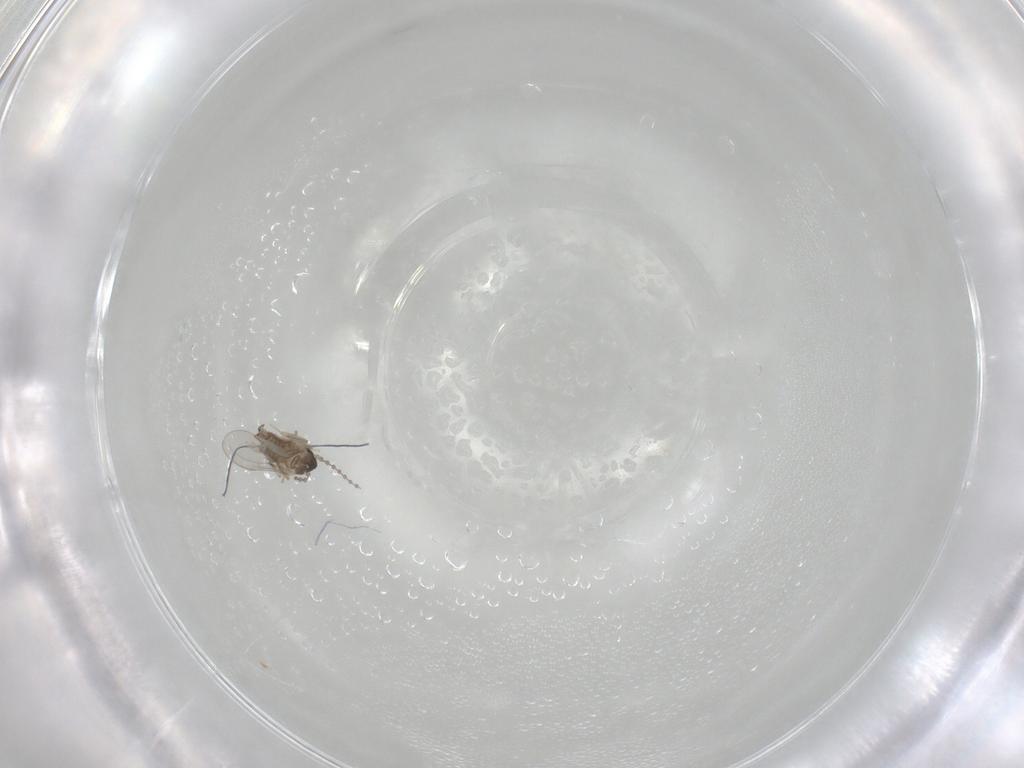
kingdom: Animalia
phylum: Arthropoda
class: Insecta
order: Diptera
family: Cecidomyiidae
